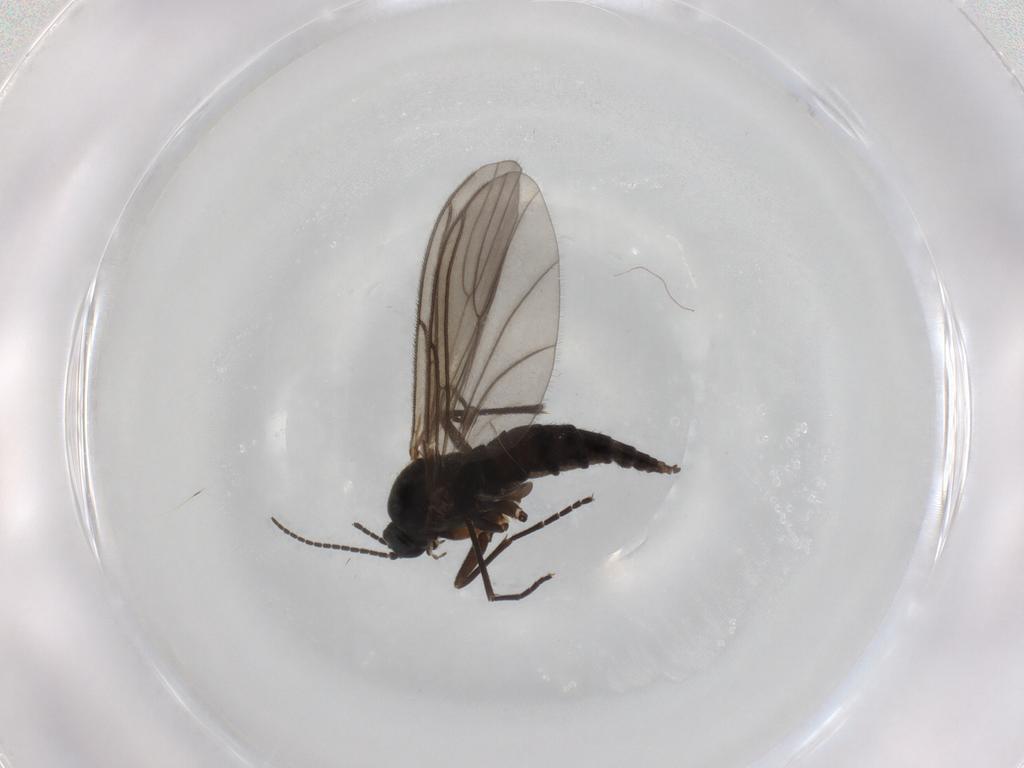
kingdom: Animalia
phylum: Arthropoda
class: Insecta
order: Diptera
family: Sciaridae
